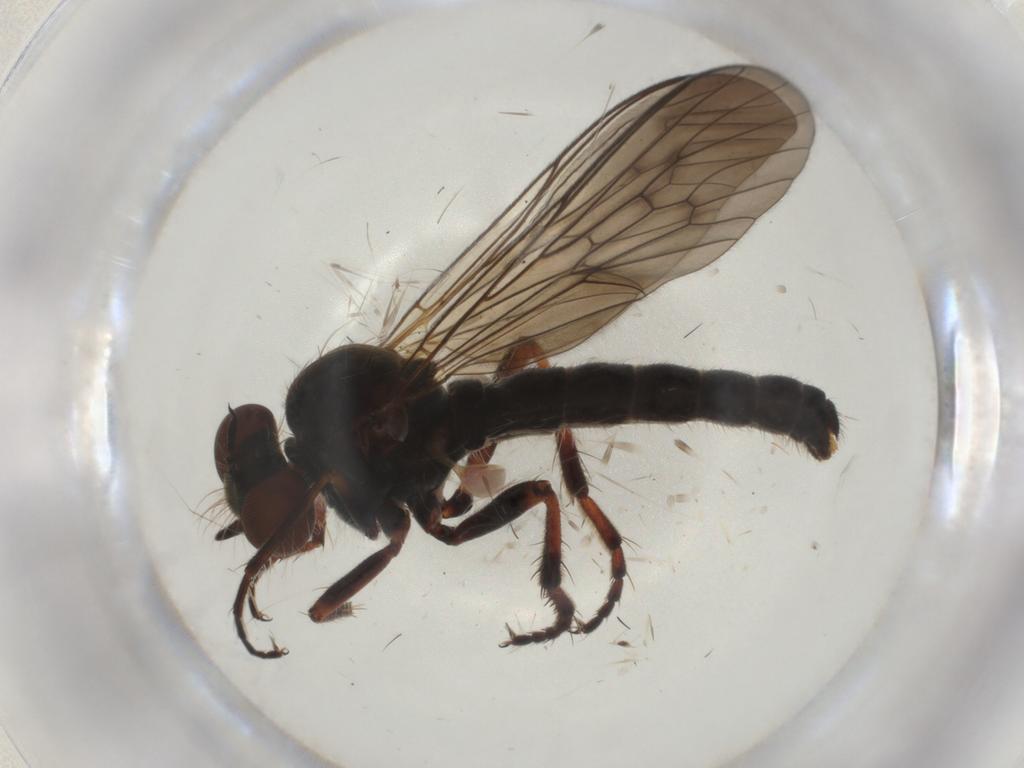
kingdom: Animalia
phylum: Arthropoda
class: Insecta
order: Diptera
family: Asilidae
